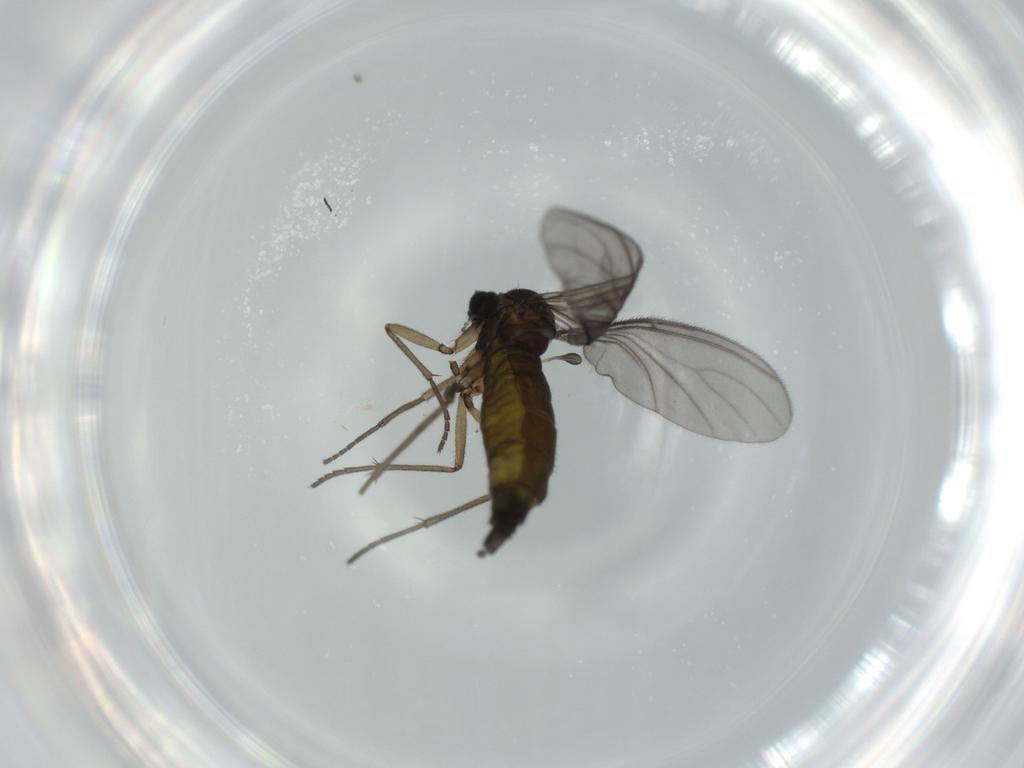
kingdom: Animalia
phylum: Arthropoda
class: Insecta
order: Diptera
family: Sciaridae
